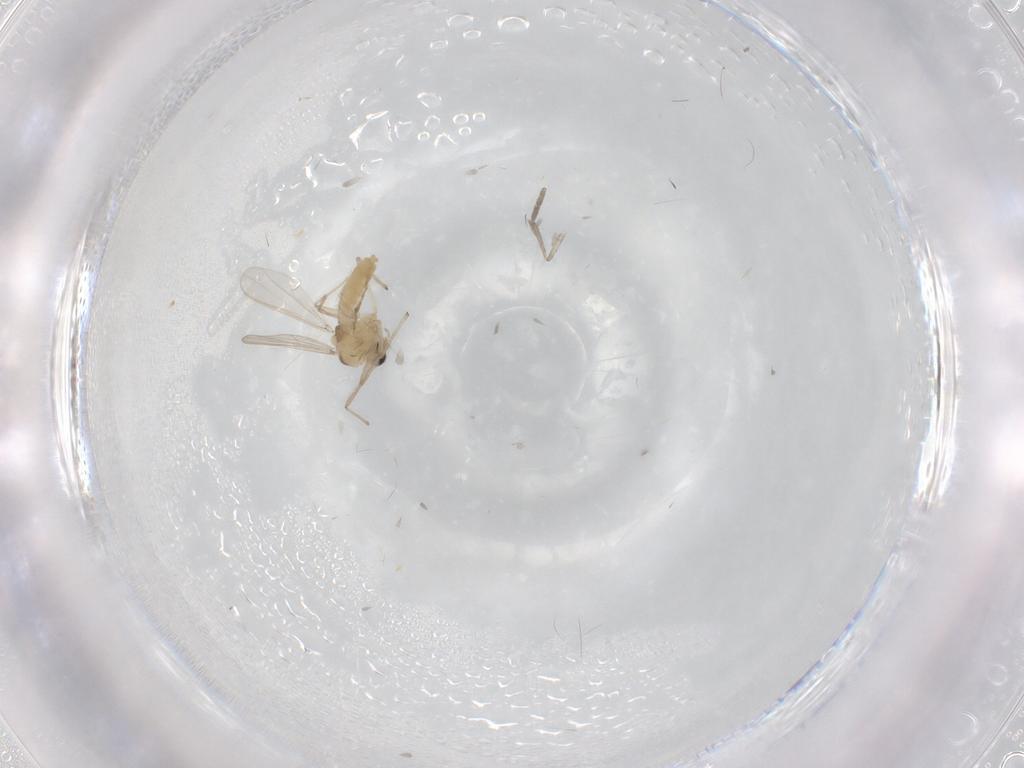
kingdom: Animalia
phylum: Arthropoda
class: Insecta
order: Diptera
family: Chironomidae
